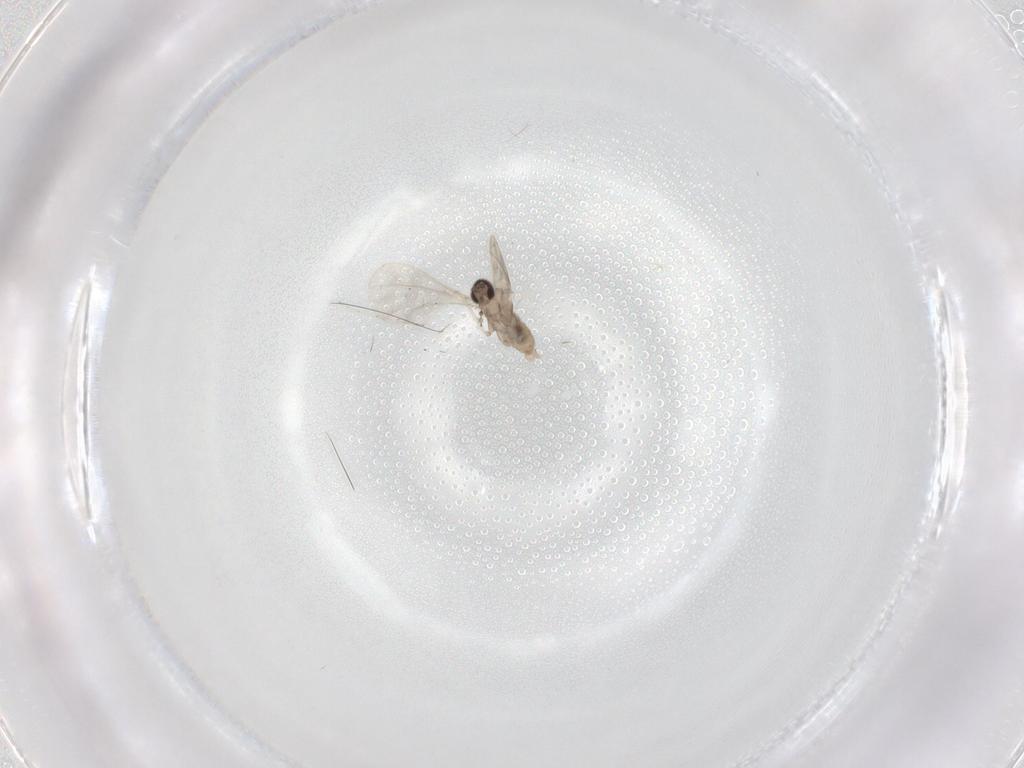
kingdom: Animalia
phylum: Arthropoda
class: Insecta
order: Diptera
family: Cecidomyiidae
